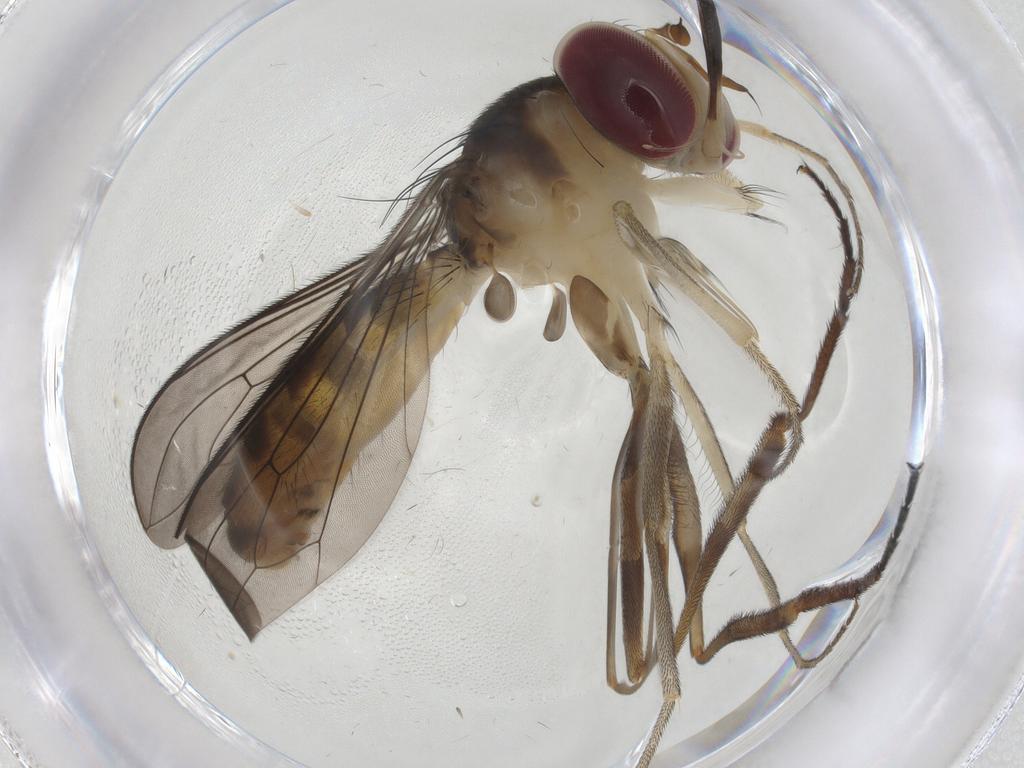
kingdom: Animalia
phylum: Arthropoda
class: Insecta
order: Diptera
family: Conopidae
